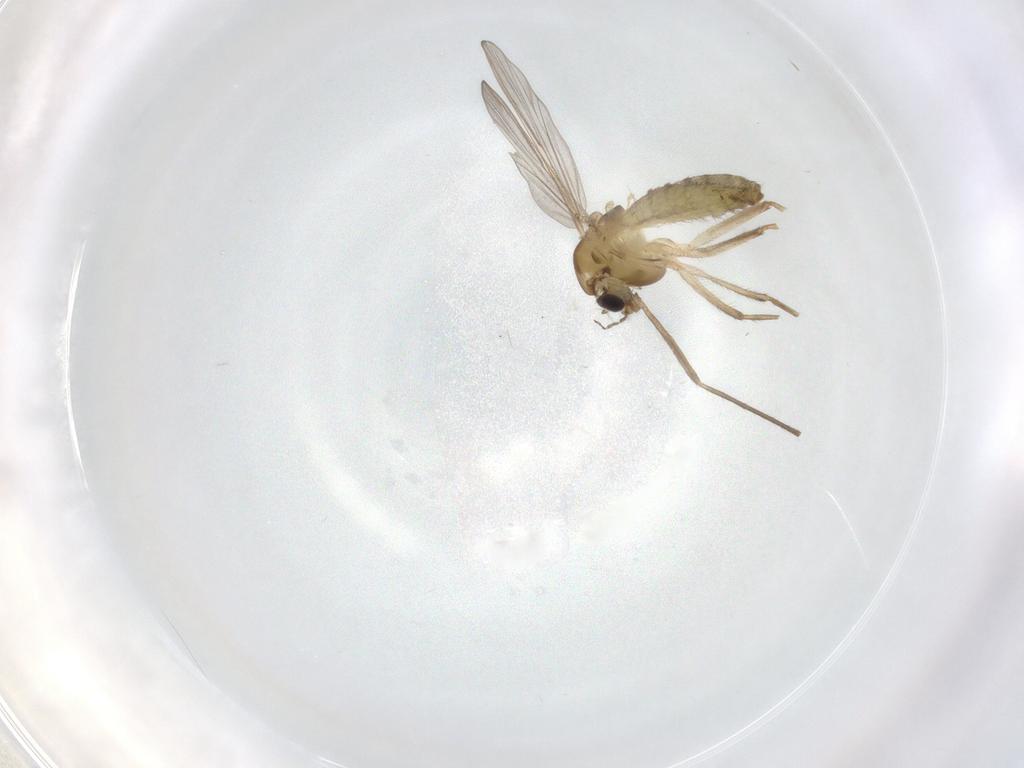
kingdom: Animalia
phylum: Arthropoda
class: Insecta
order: Diptera
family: Chironomidae
